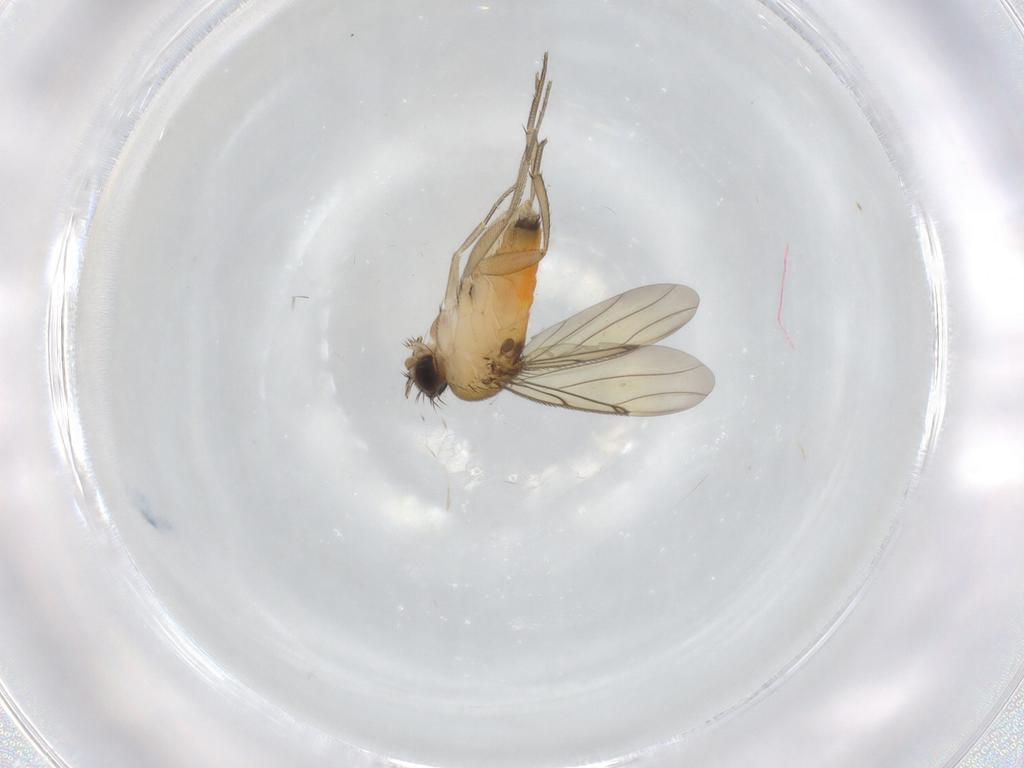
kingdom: Animalia
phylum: Arthropoda
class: Insecta
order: Diptera
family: Phoridae
